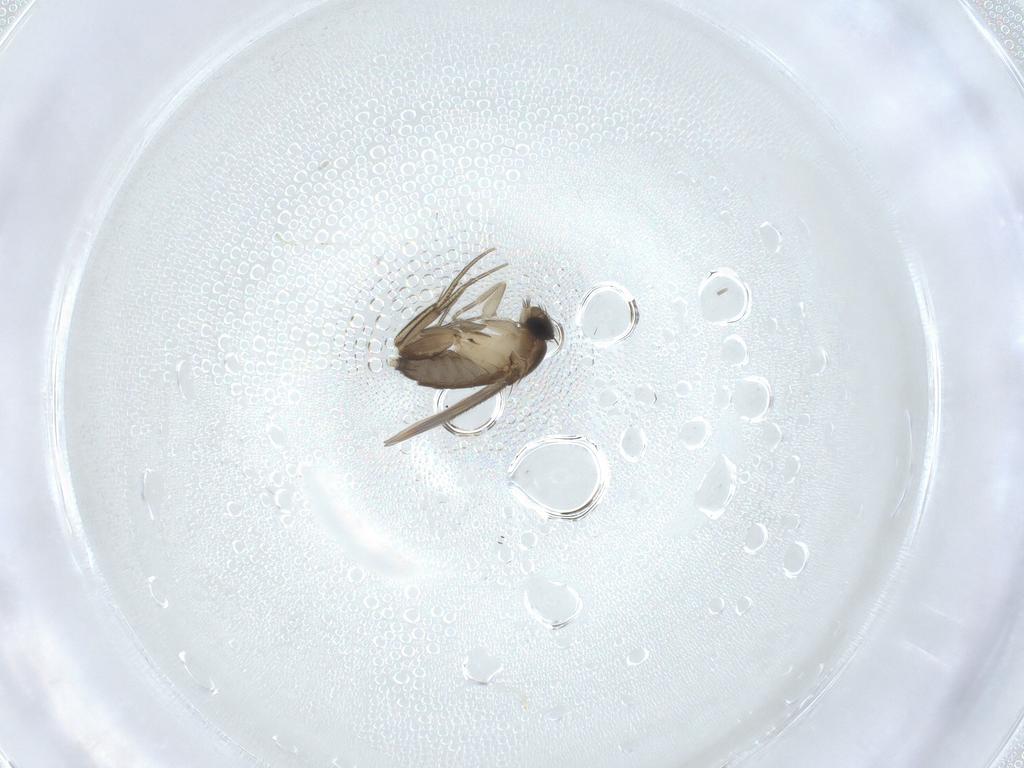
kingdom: Animalia
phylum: Arthropoda
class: Insecta
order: Diptera
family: Phoridae
